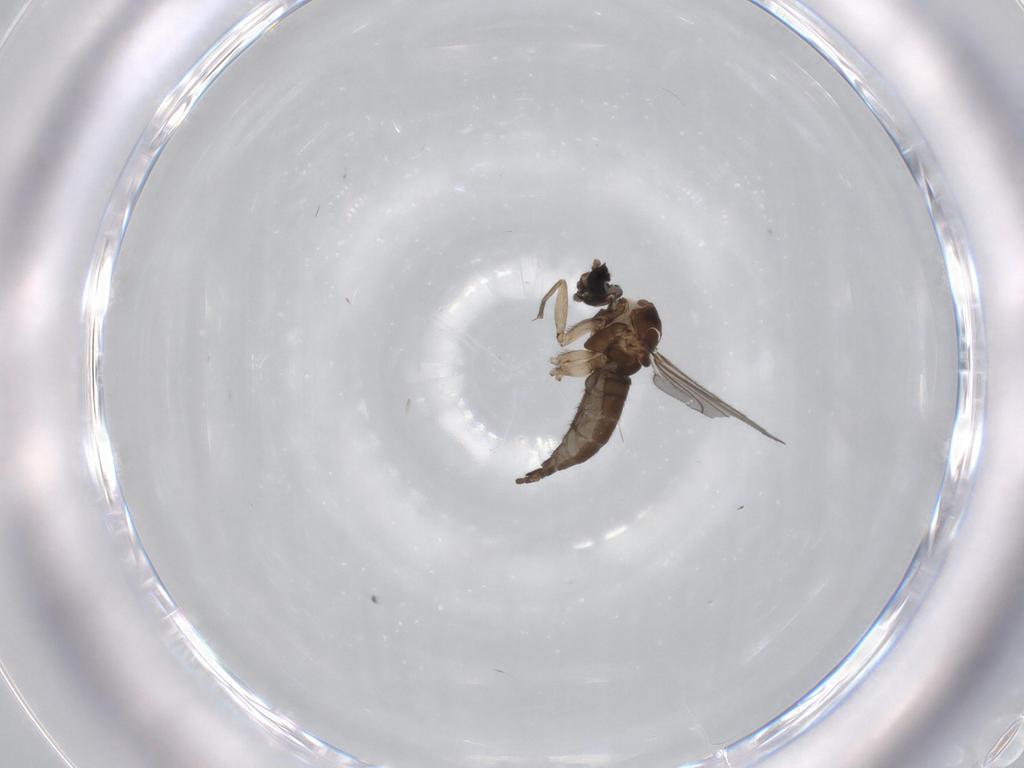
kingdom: Animalia
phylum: Arthropoda
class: Insecta
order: Diptera
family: Sciaridae
